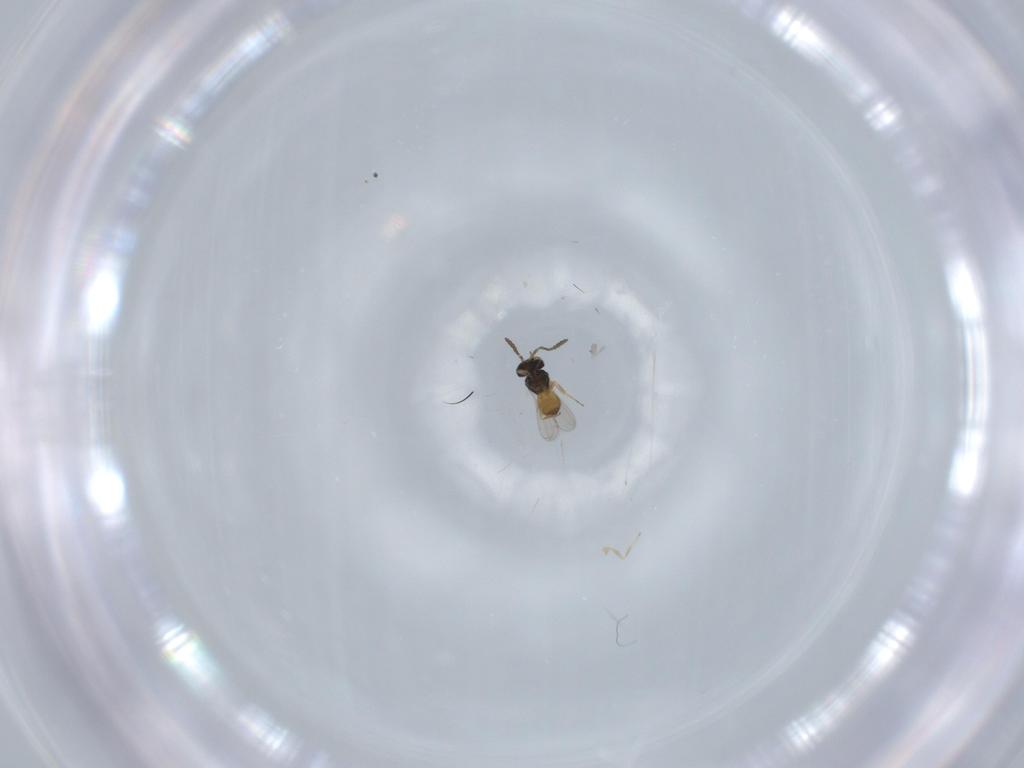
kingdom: Animalia
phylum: Arthropoda
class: Insecta
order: Hymenoptera
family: Scelionidae
